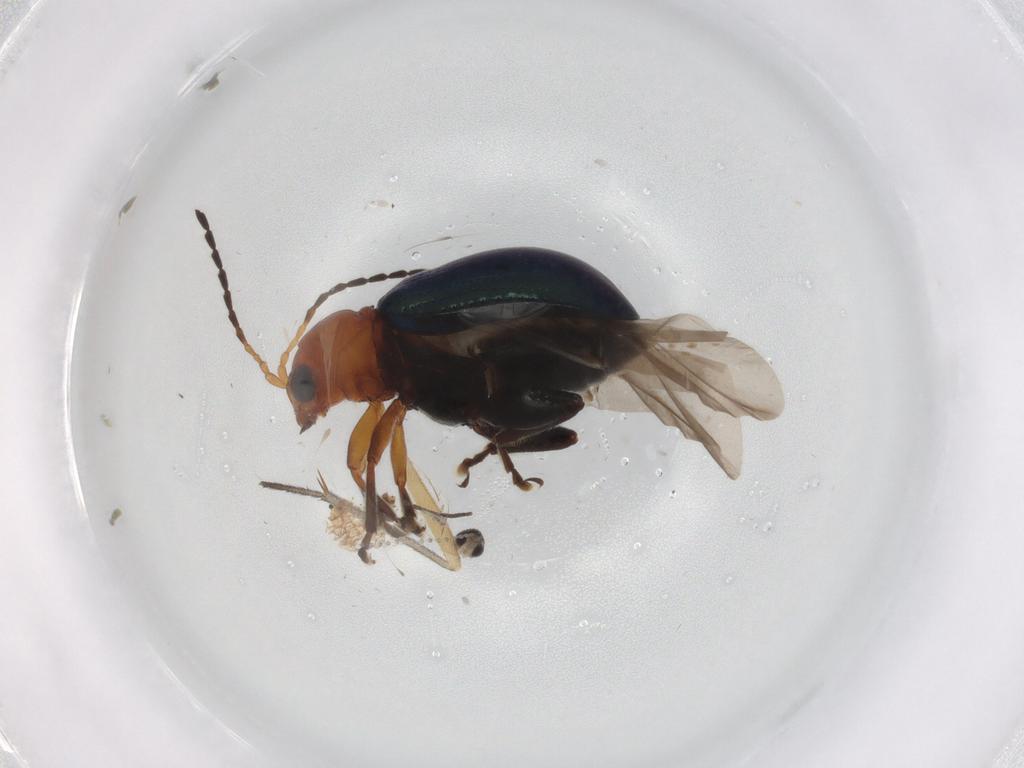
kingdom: Animalia
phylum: Arthropoda
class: Insecta
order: Coleoptera
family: Chrysomelidae
